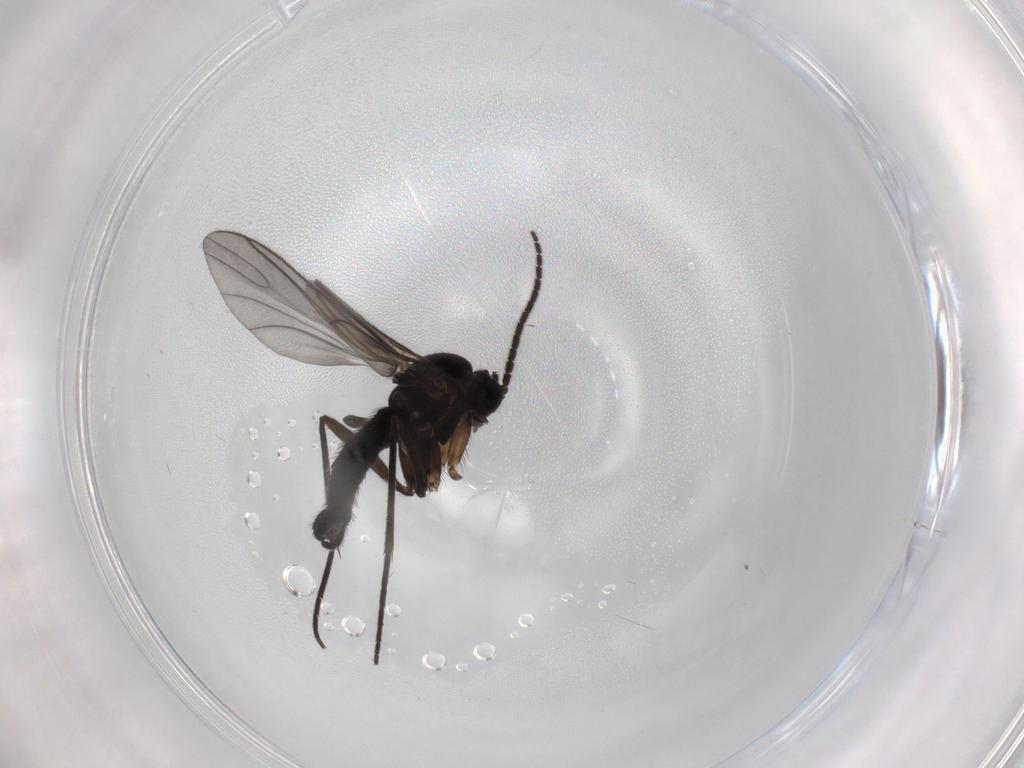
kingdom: Animalia
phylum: Arthropoda
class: Insecta
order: Diptera
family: Sciaridae
